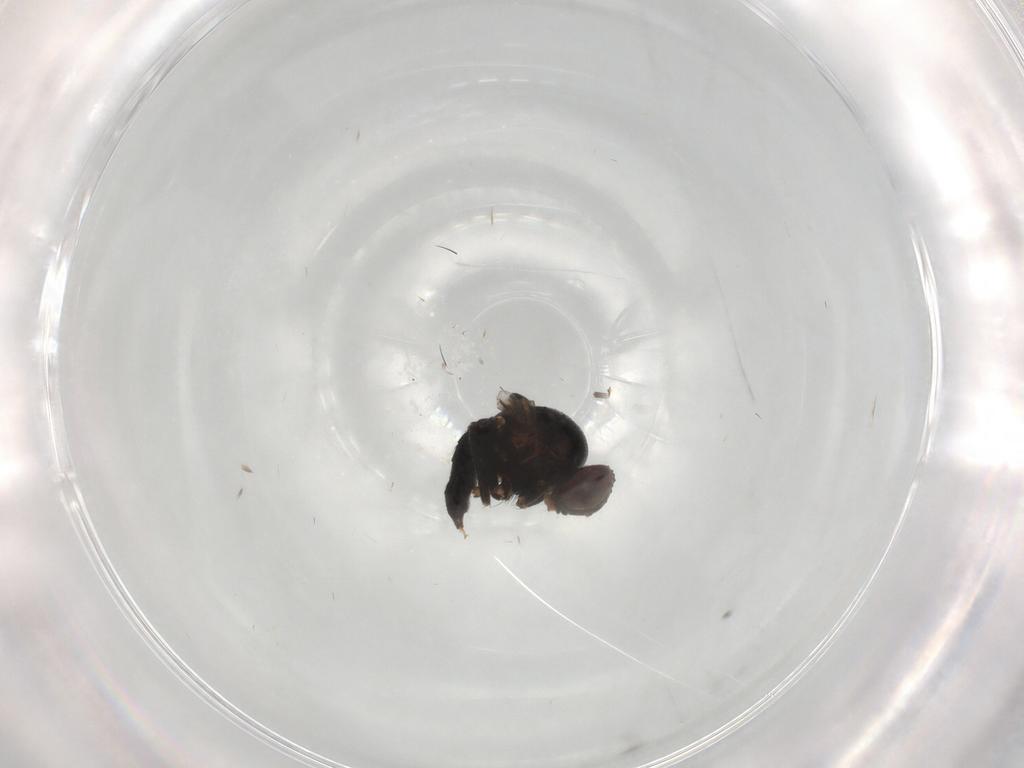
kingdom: Animalia
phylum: Arthropoda
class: Insecta
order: Diptera
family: Agromyzidae
